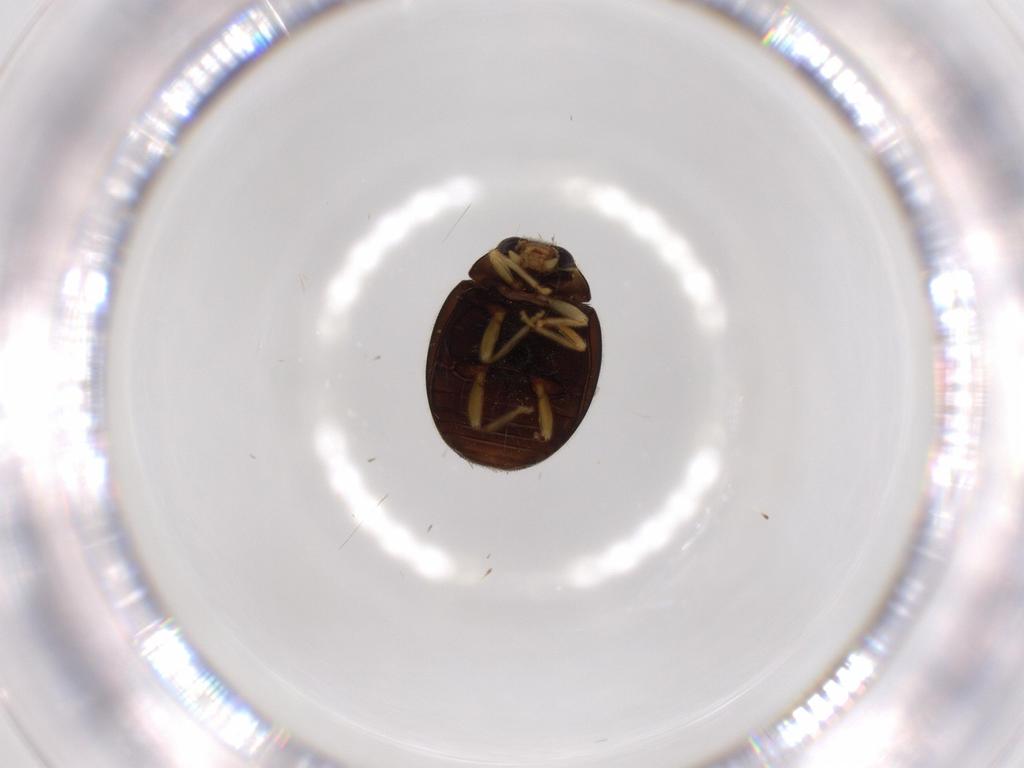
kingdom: Animalia
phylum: Arthropoda
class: Insecta
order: Coleoptera
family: Coccinellidae
